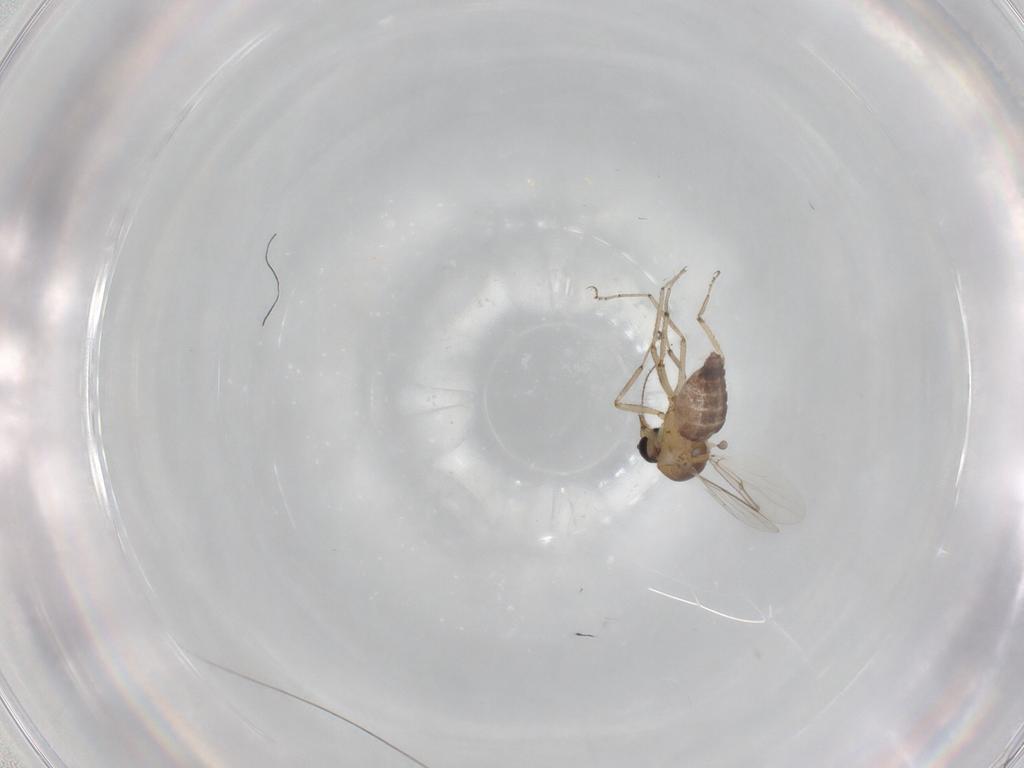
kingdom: Animalia
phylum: Arthropoda
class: Insecta
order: Diptera
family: Ceratopogonidae
